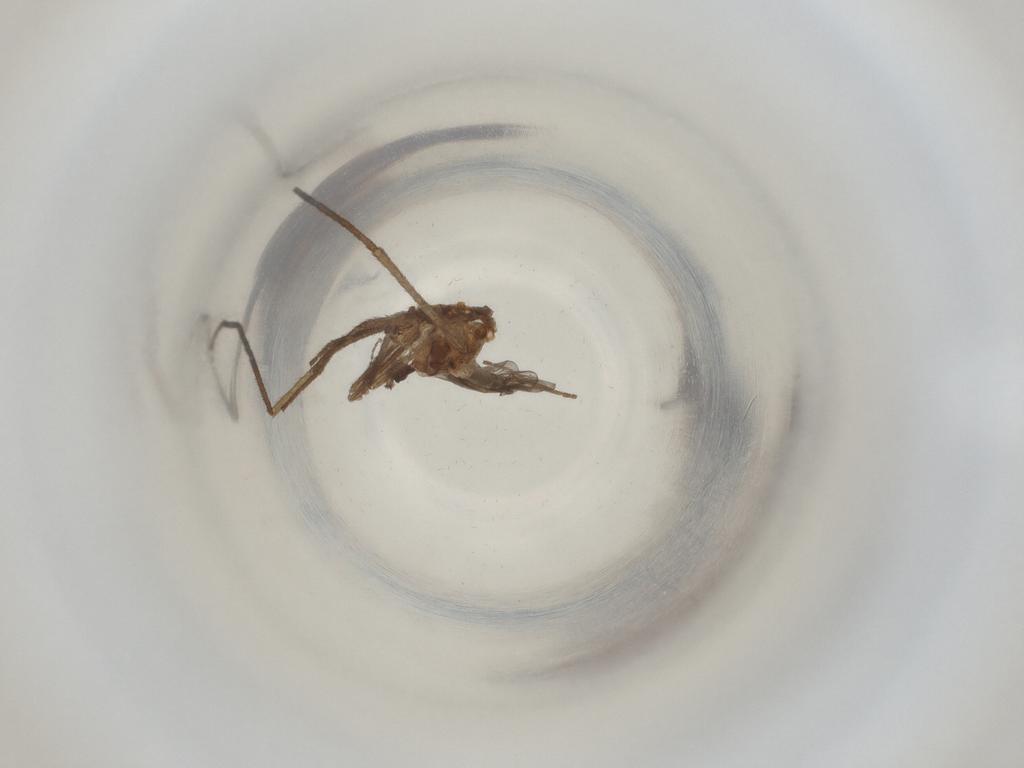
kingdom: Animalia
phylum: Arthropoda
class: Insecta
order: Diptera
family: Cecidomyiidae
